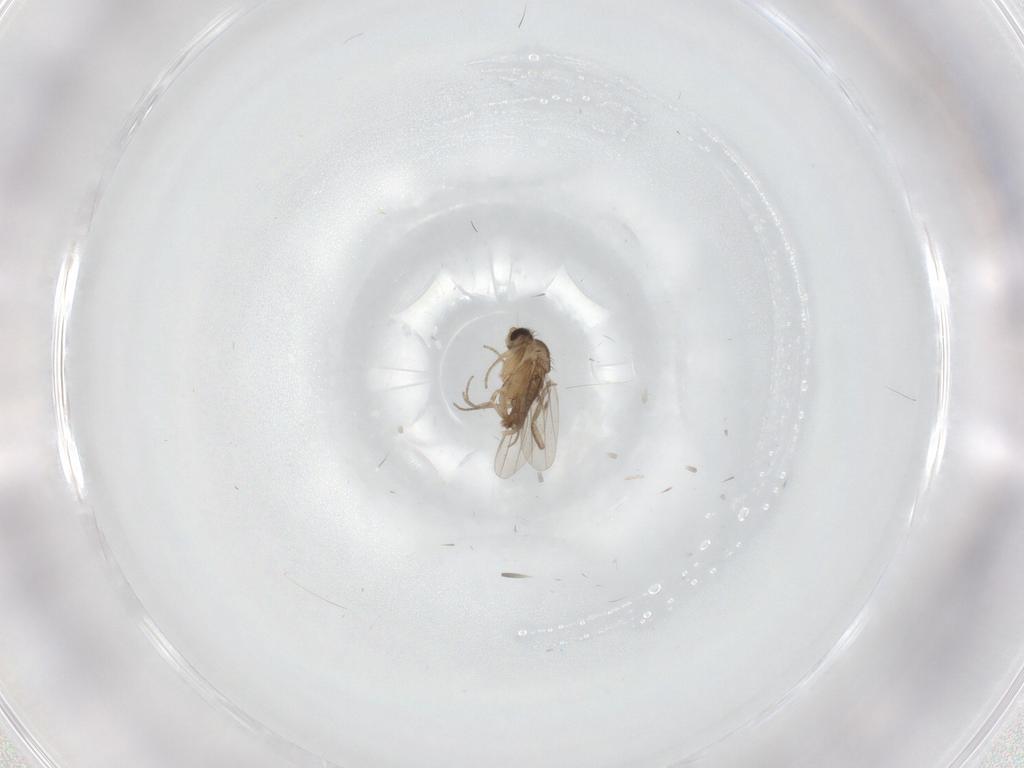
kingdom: Animalia
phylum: Arthropoda
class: Insecta
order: Diptera
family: Phoridae
